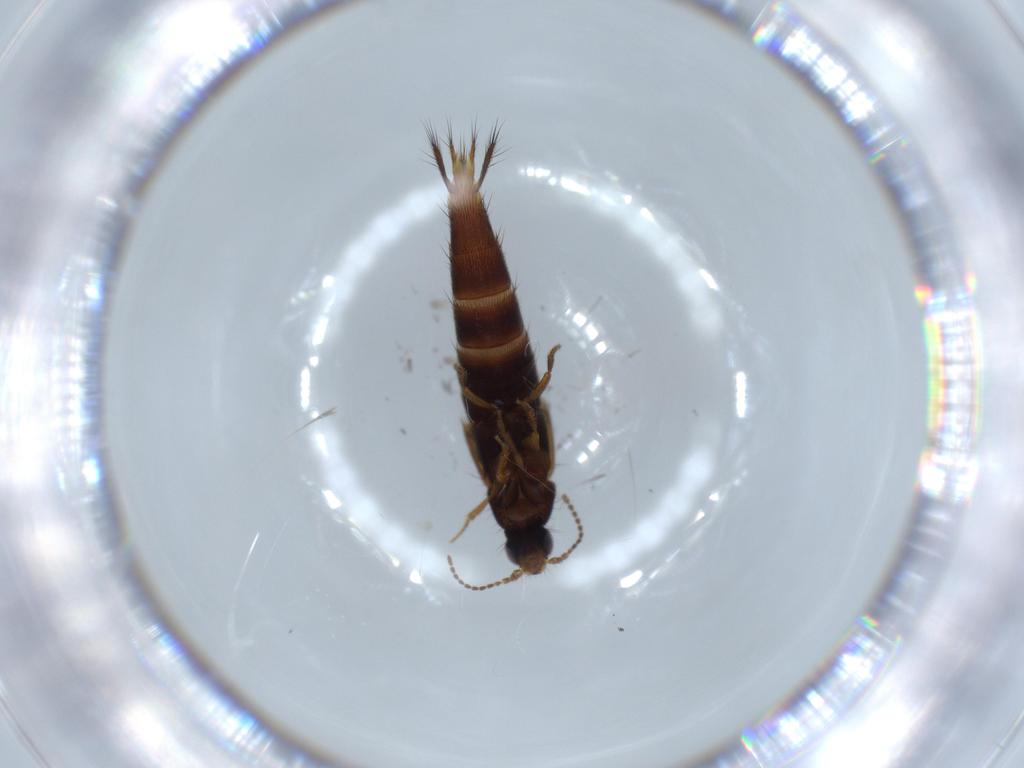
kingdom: Animalia
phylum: Arthropoda
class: Insecta
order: Coleoptera
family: Staphylinidae
